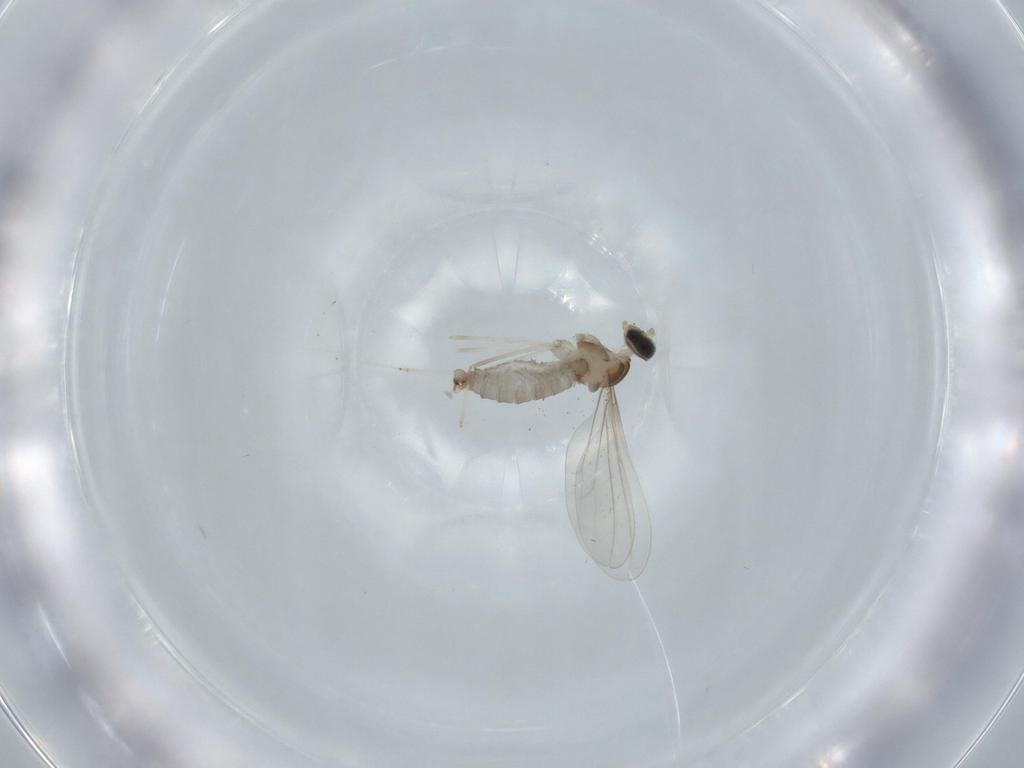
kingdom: Animalia
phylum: Arthropoda
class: Insecta
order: Diptera
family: Cecidomyiidae
